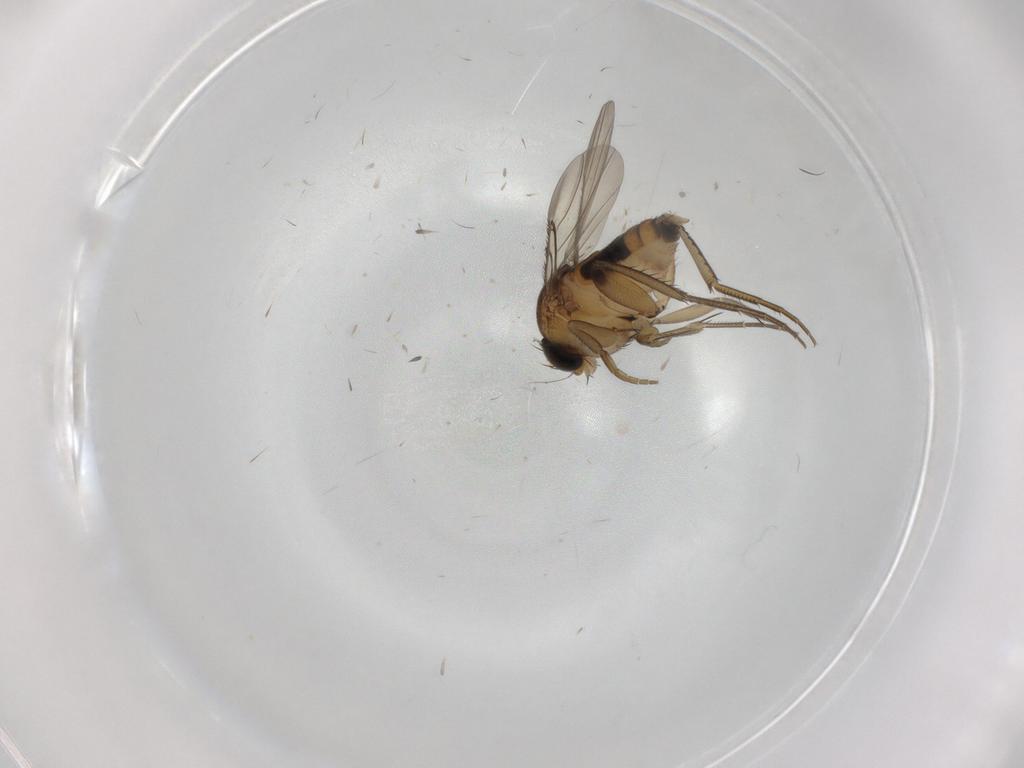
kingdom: Animalia
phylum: Arthropoda
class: Insecta
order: Diptera
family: Phoridae
